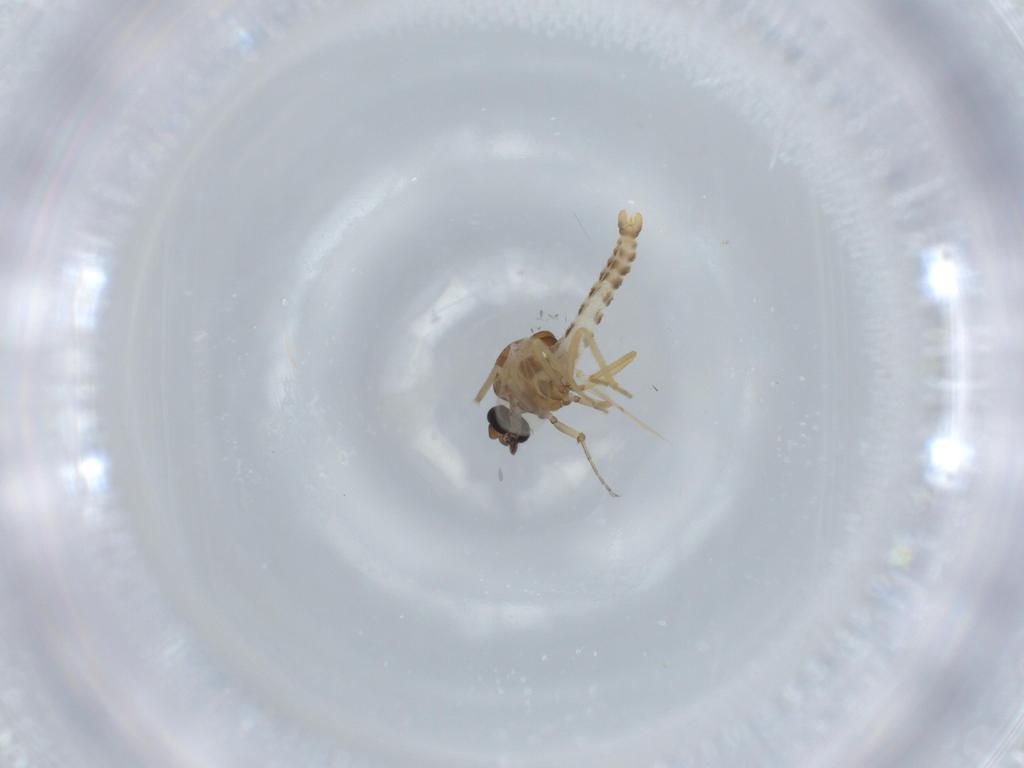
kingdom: Animalia
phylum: Arthropoda
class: Insecta
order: Diptera
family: Ceratopogonidae
